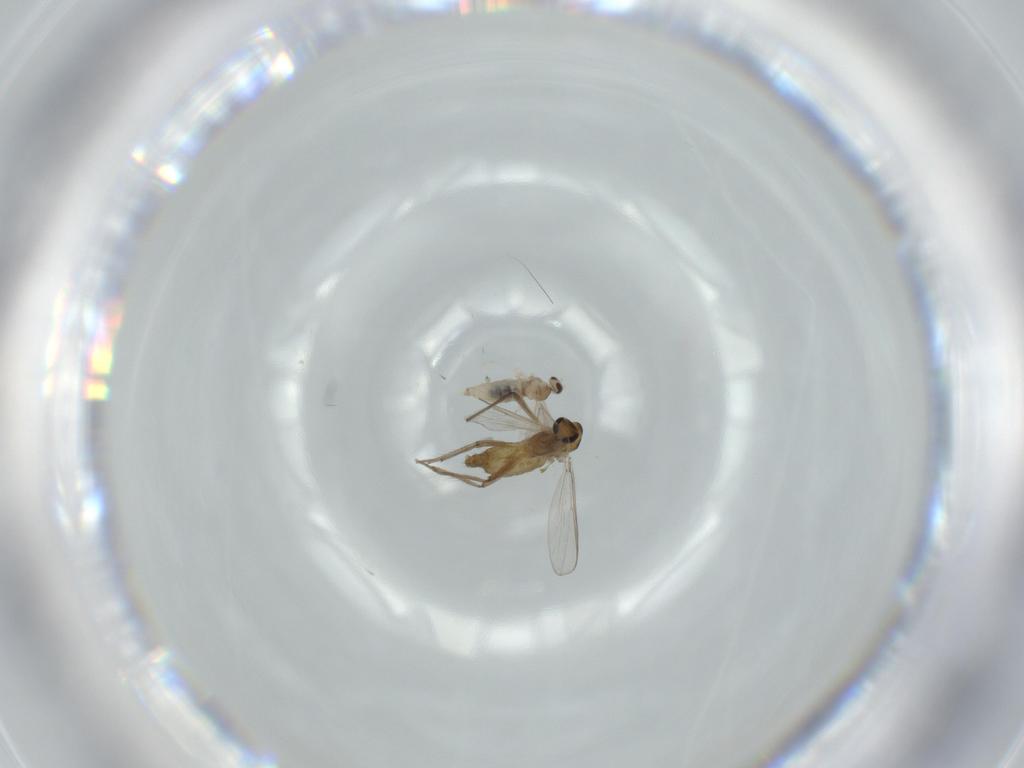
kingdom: Animalia
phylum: Arthropoda
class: Insecta
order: Diptera
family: Chironomidae
